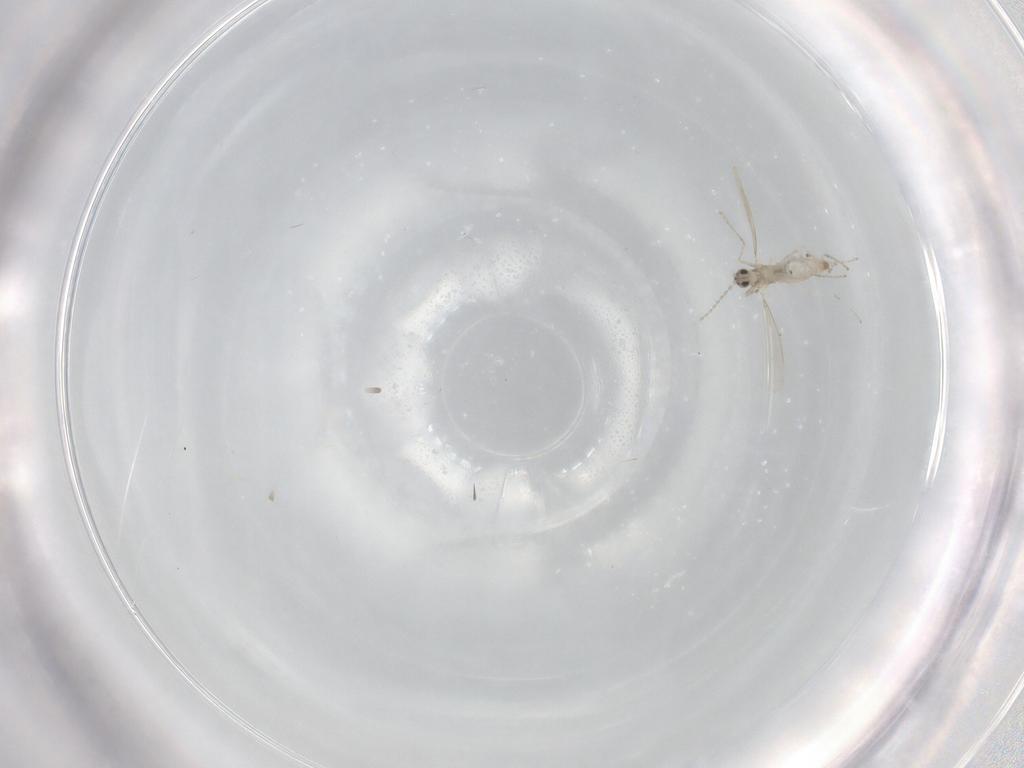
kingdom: Animalia
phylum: Arthropoda
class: Insecta
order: Diptera
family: Cecidomyiidae
